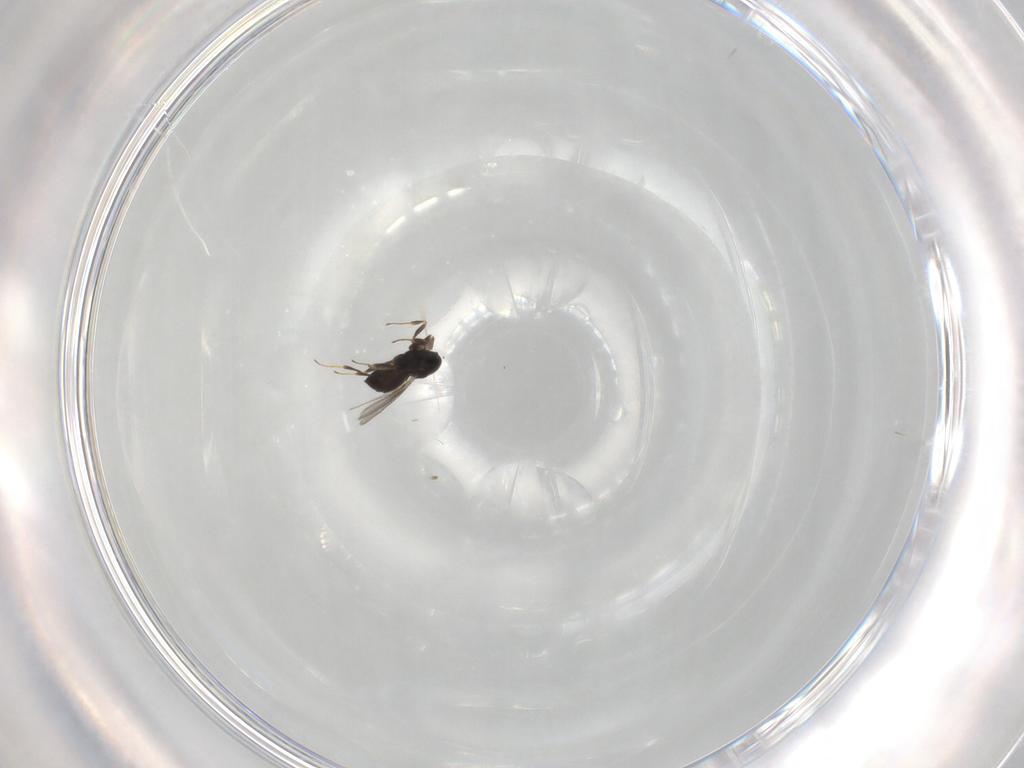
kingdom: Animalia
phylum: Arthropoda
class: Insecta
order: Hymenoptera
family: Scelionidae
